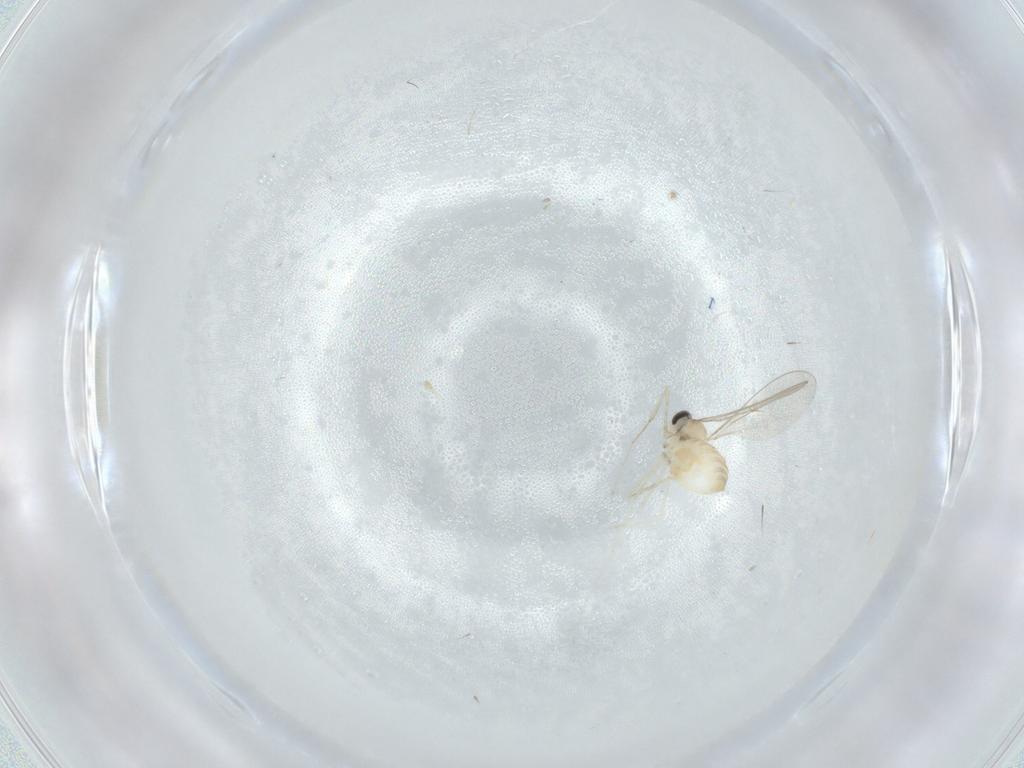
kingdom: Animalia
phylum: Arthropoda
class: Insecta
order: Diptera
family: Cecidomyiidae
